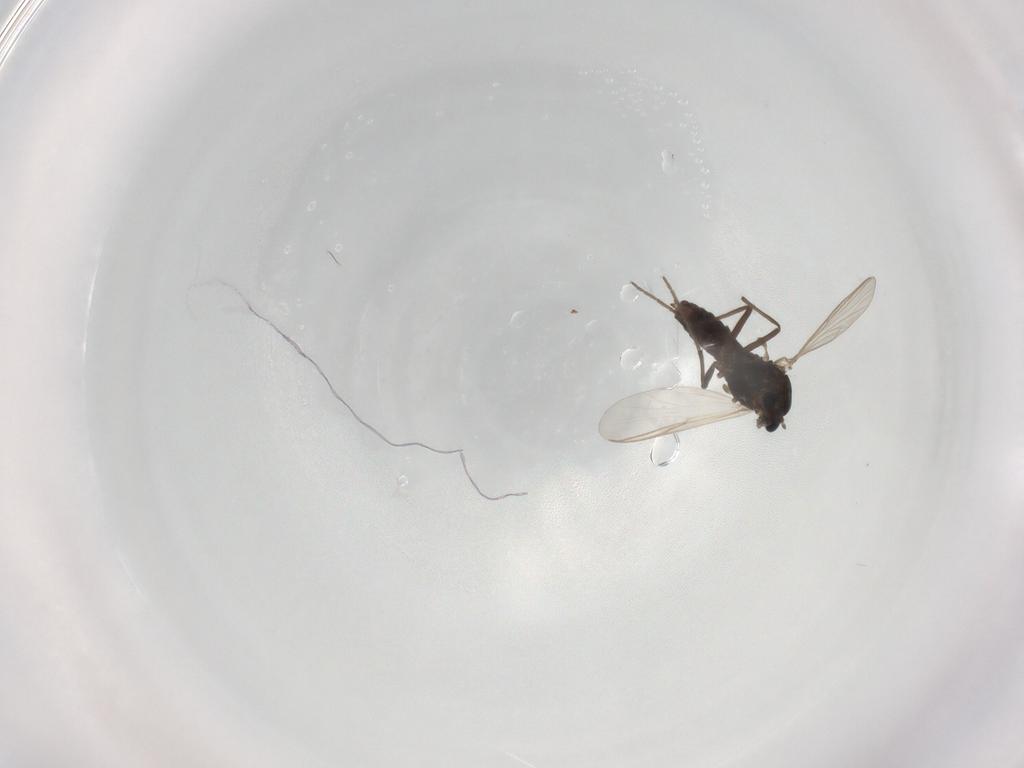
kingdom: Animalia
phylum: Arthropoda
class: Insecta
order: Diptera
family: Chironomidae
